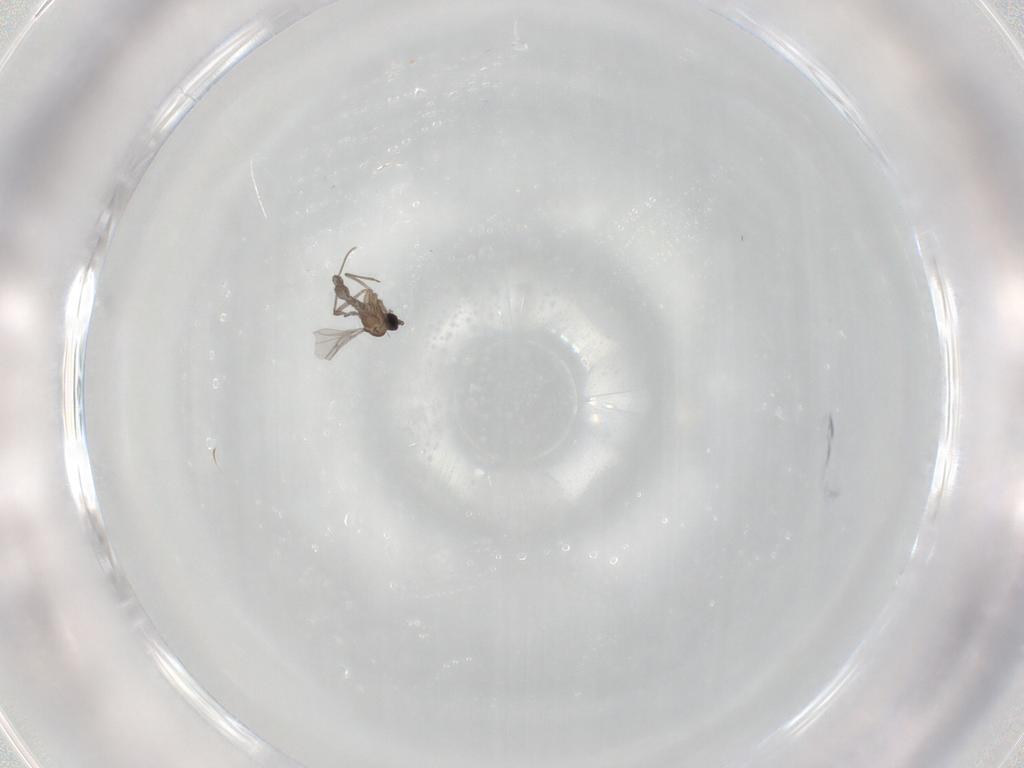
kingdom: Animalia
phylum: Arthropoda
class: Insecta
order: Diptera
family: Cecidomyiidae
